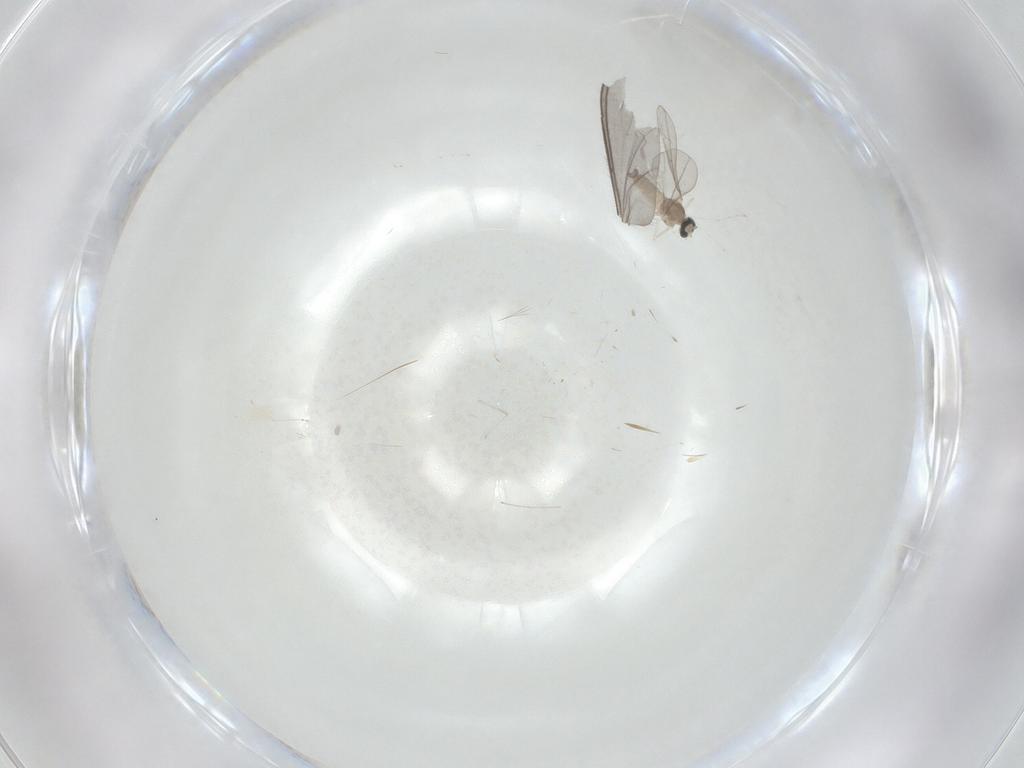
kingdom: Animalia
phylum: Arthropoda
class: Insecta
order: Diptera
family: Cecidomyiidae
